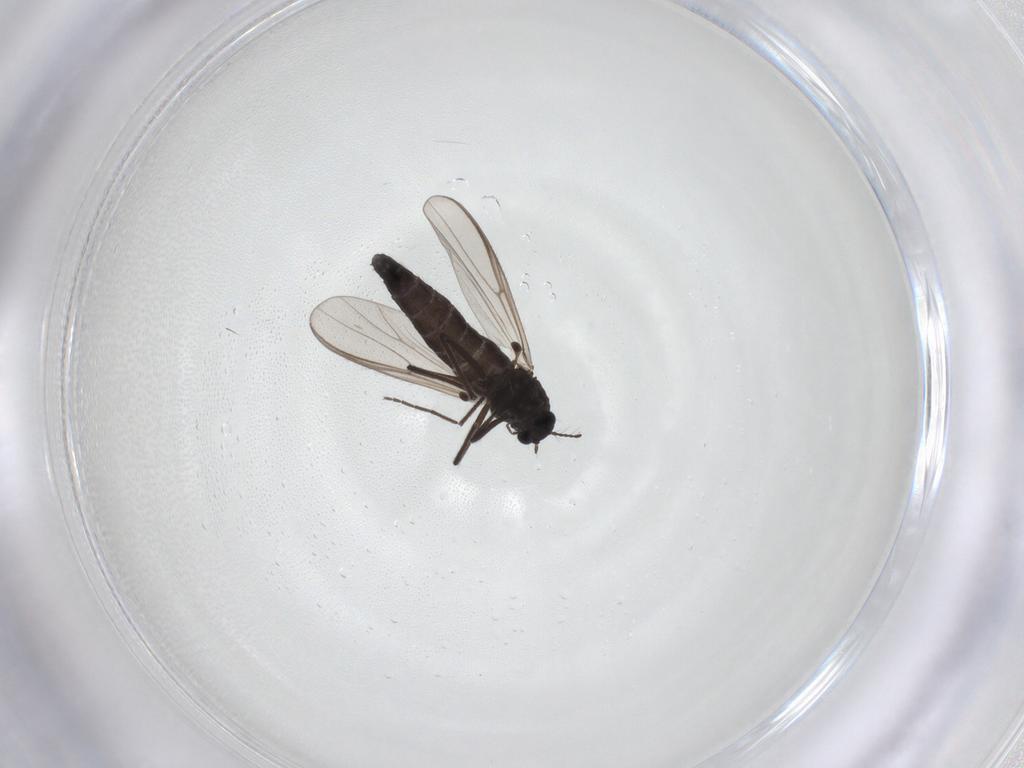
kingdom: Animalia
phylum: Arthropoda
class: Insecta
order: Diptera
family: Chironomidae
